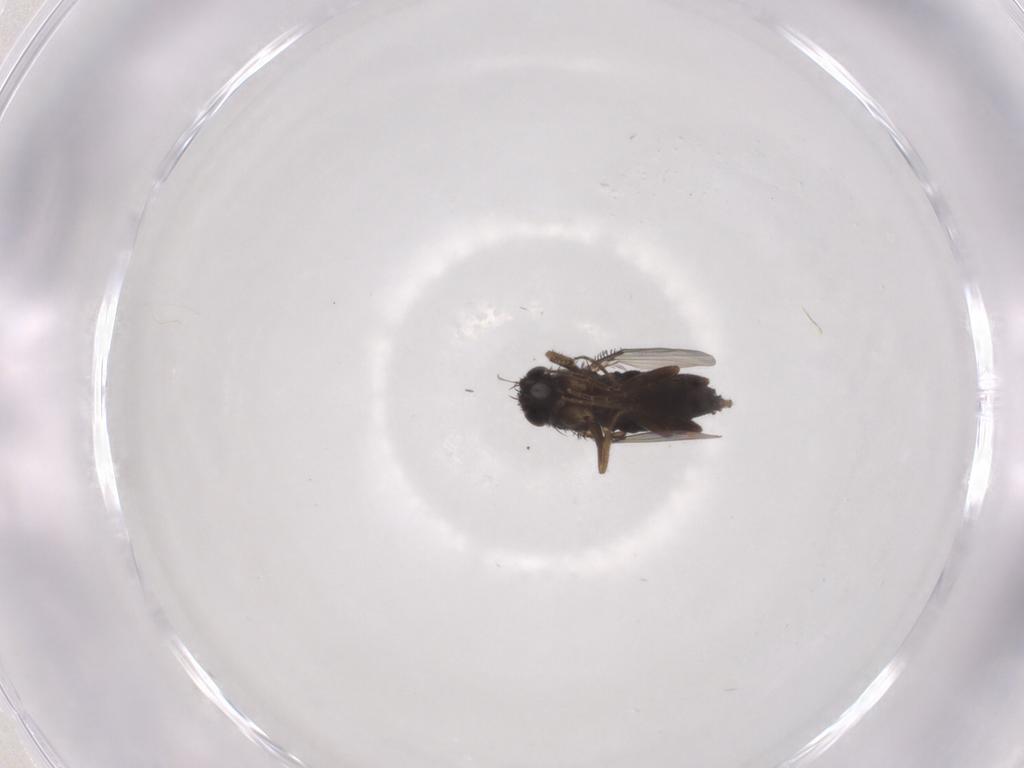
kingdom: Animalia
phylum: Arthropoda
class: Insecta
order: Diptera
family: Phoridae
